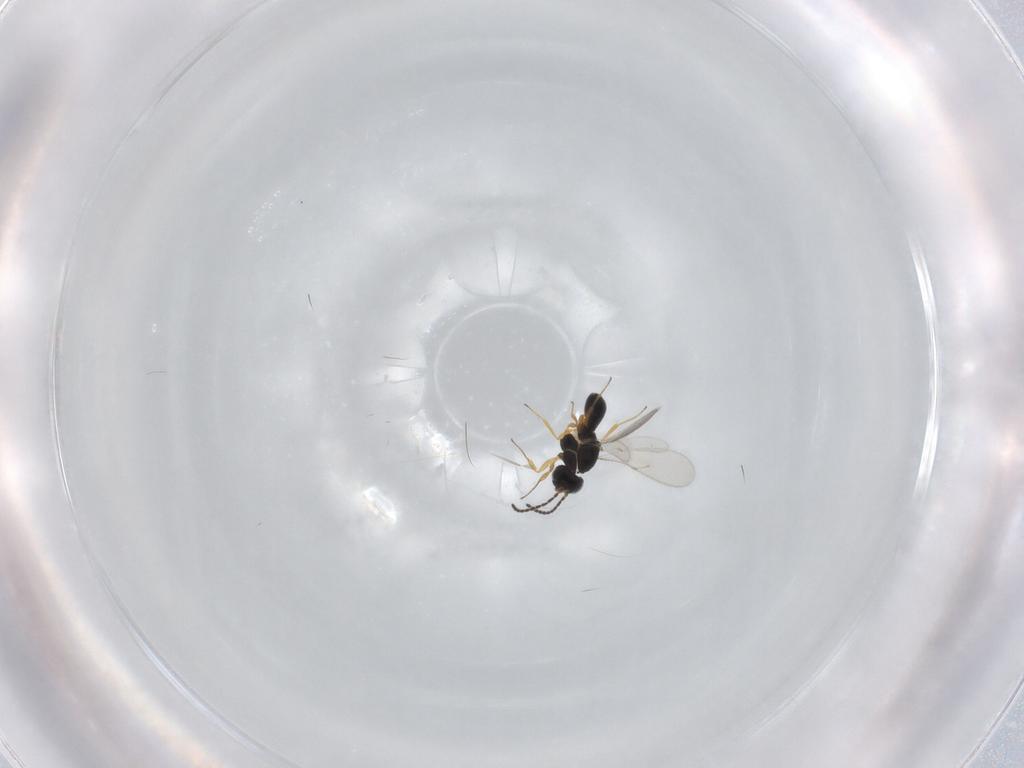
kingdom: Animalia
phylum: Arthropoda
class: Insecta
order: Hymenoptera
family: Scelionidae
